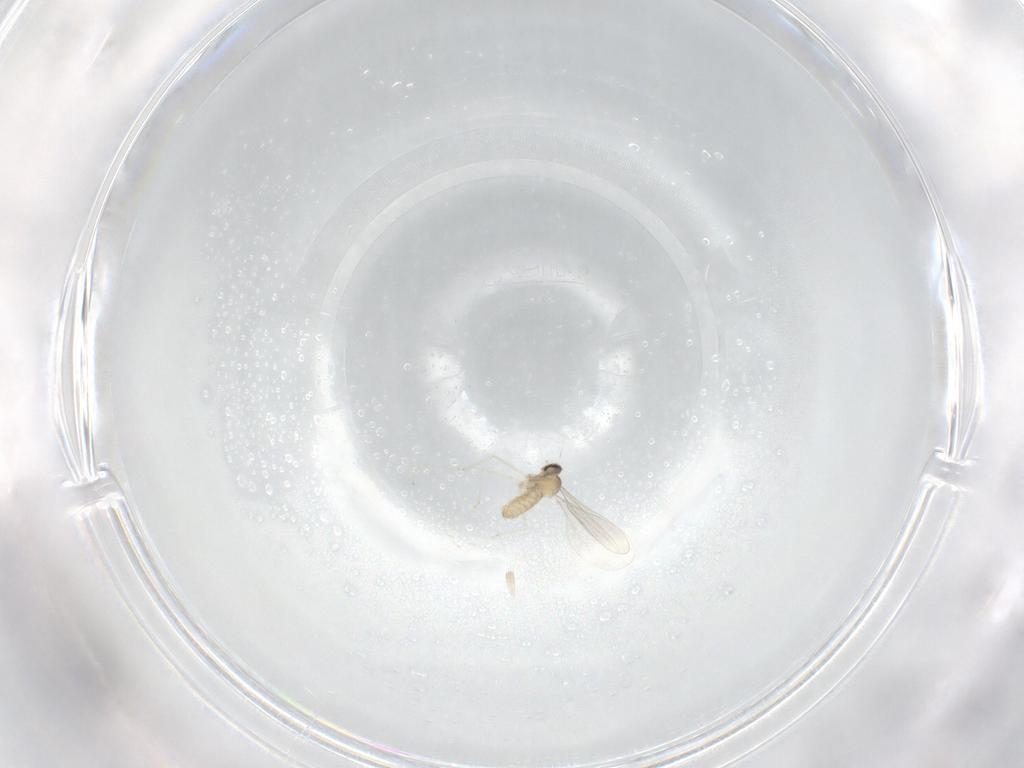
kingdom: Animalia
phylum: Arthropoda
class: Insecta
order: Diptera
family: Cecidomyiidae
